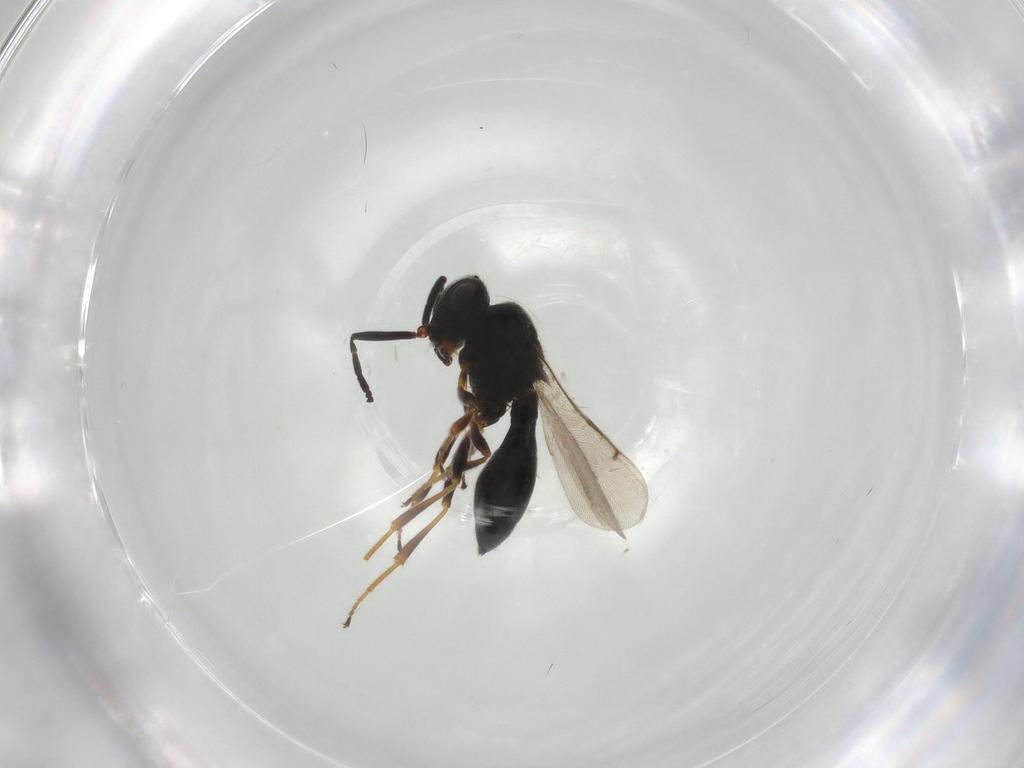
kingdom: Animalia
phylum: Arthropoda
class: Insecta
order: Hymenoptera
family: Scelionidae
